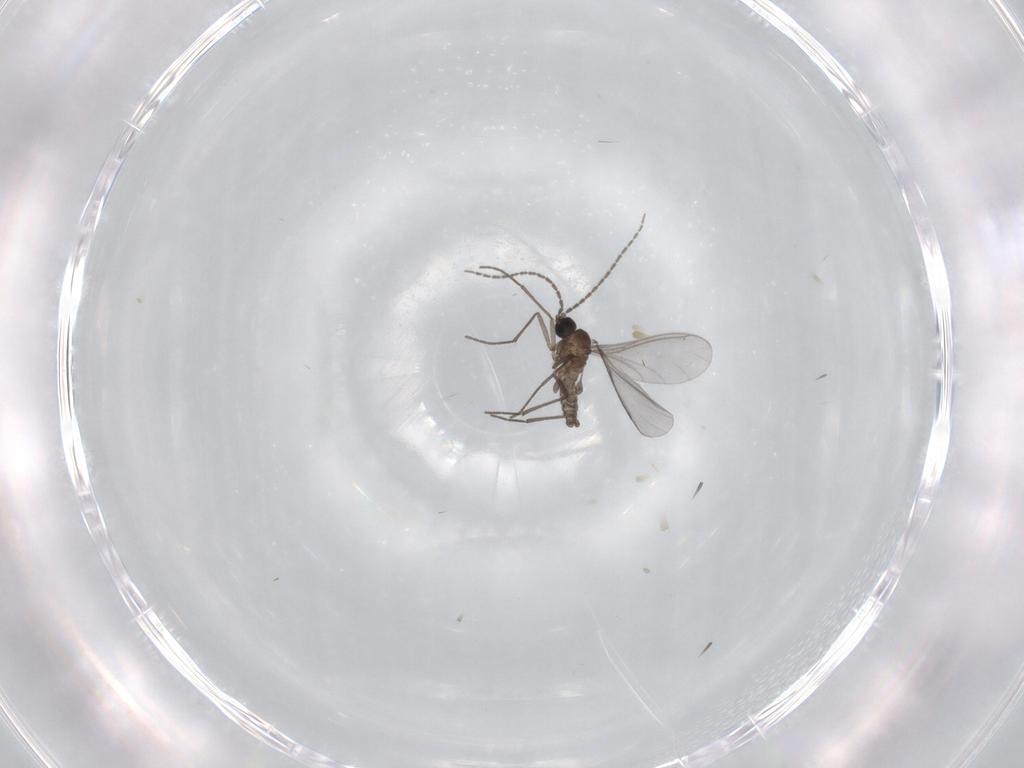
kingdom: Animalia
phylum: Arthropoda
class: Insecta
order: Diptera
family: Sciaridae
